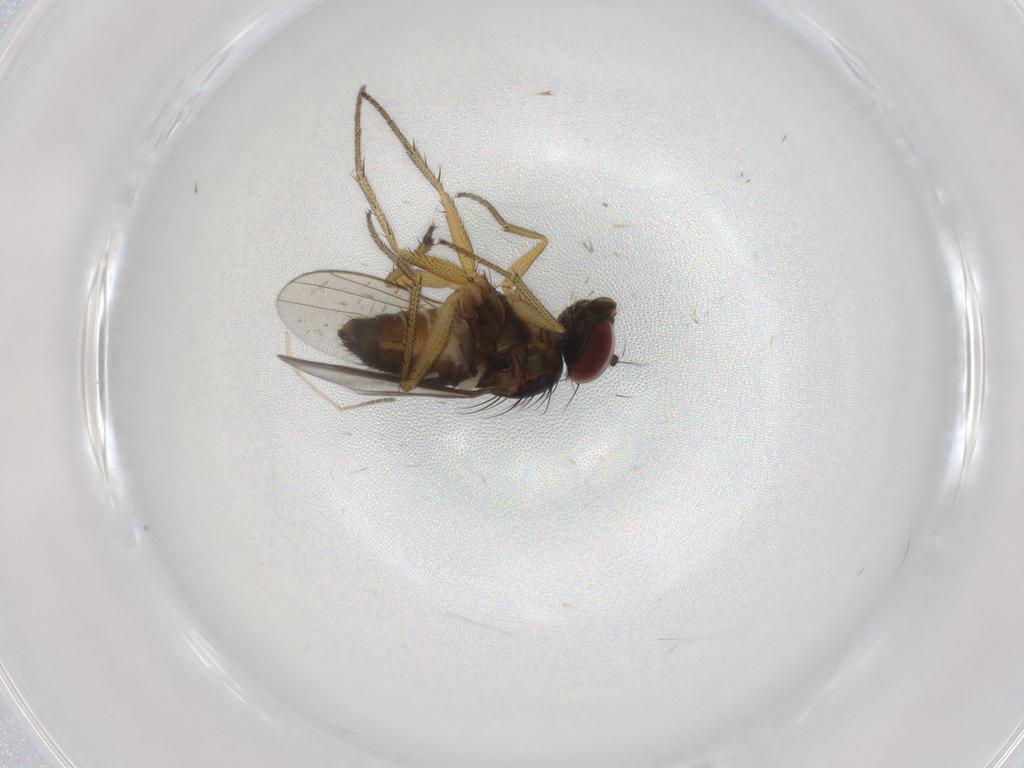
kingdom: Animalia
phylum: Arthropoda
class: Insecta
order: Diptera
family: Dolichopodidae
